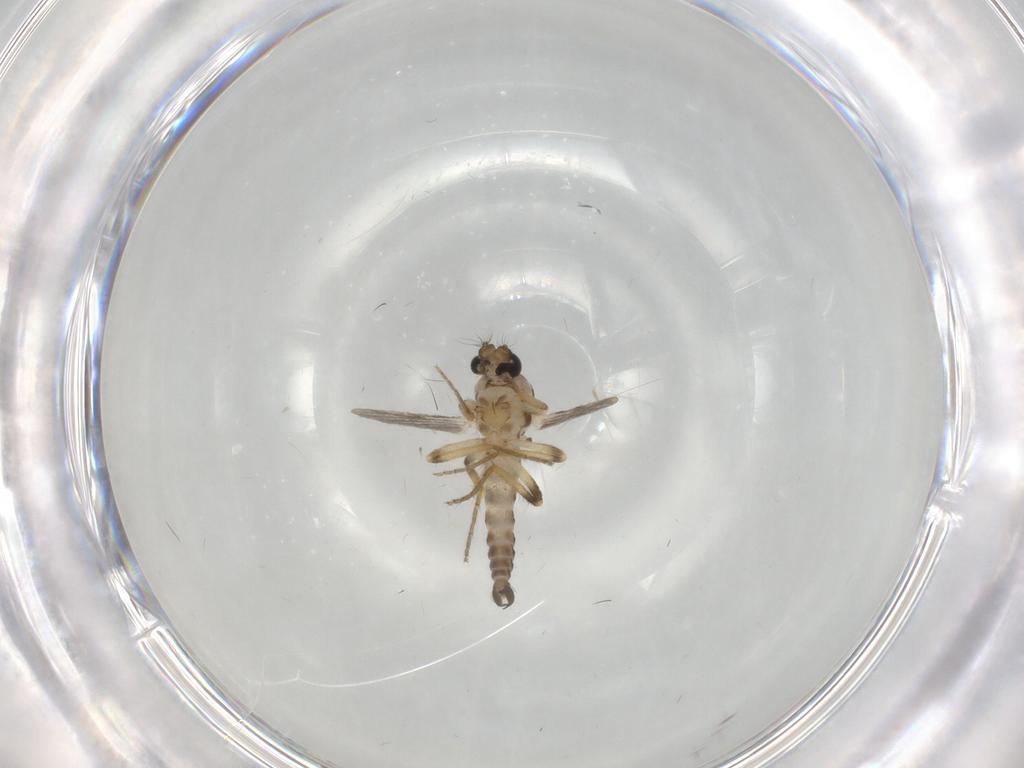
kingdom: Animalia
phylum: Arthropoda
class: Insecta
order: Diptera
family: Ceratopogonidae
